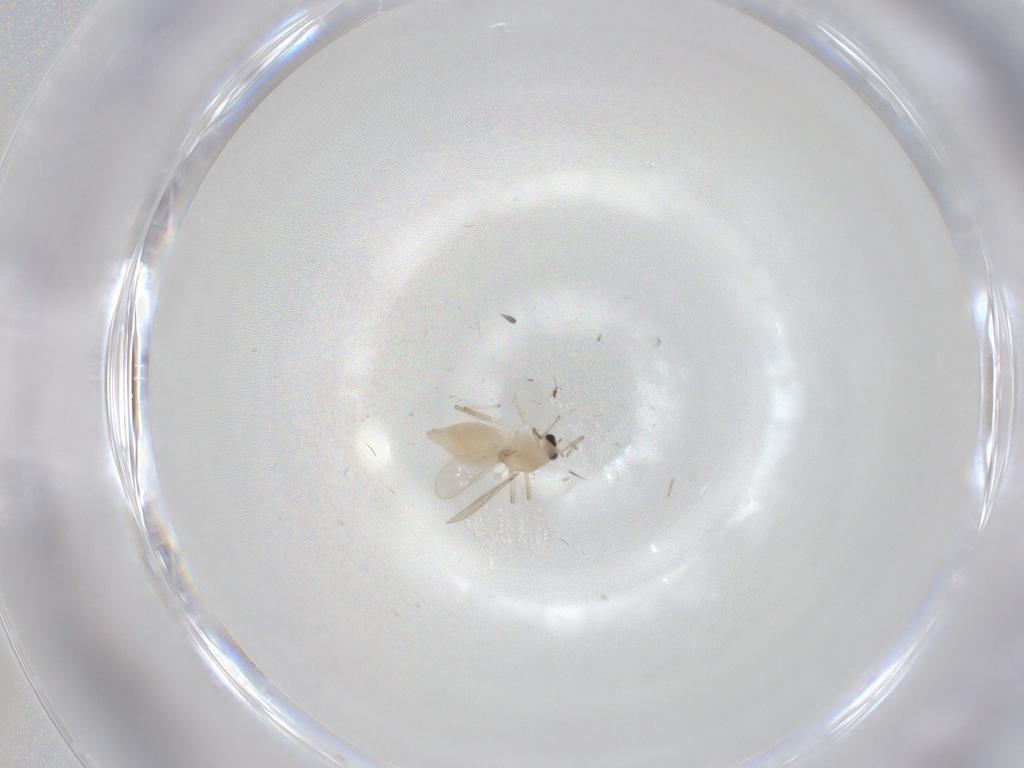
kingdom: Animalia
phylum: Arthropoda
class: Insecta
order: Diptera
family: Chironomidae
